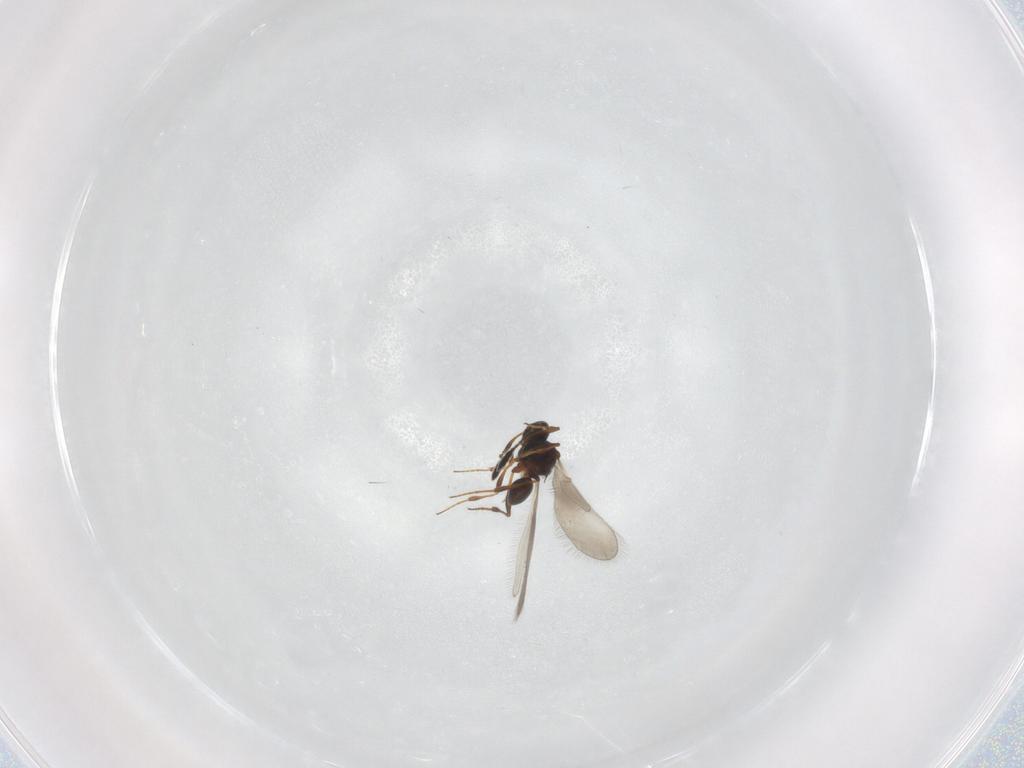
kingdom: Animalia
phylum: Arthropoda
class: Insecta
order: Hymenoptera
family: Platygastridae
